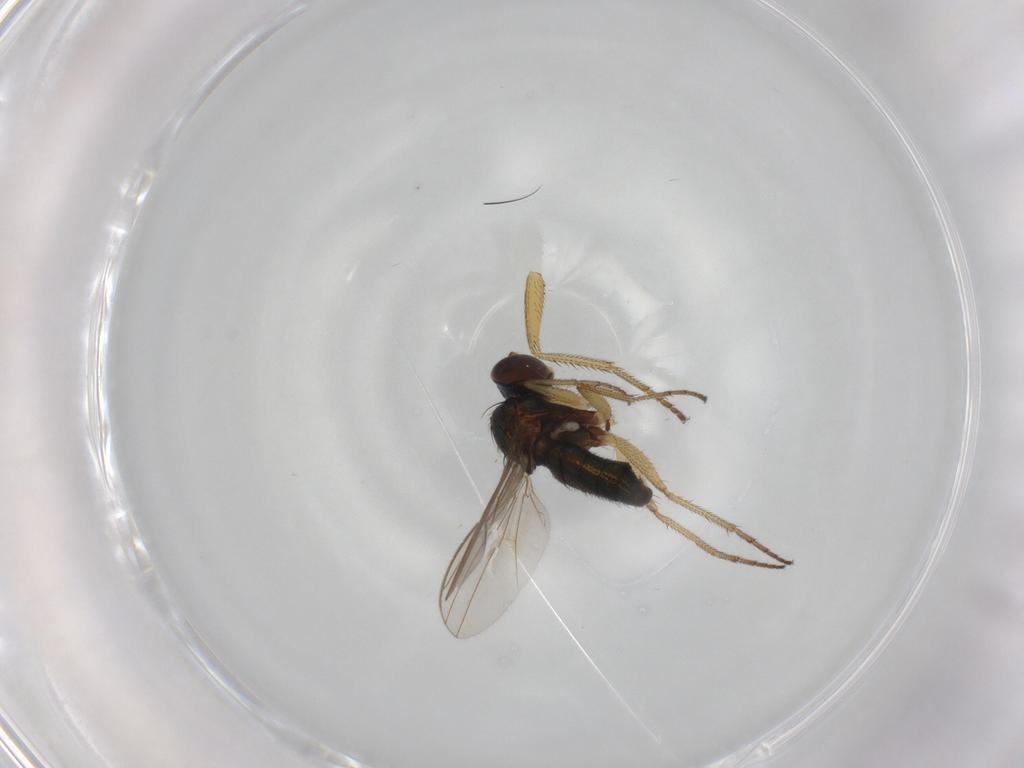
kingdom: Animalia
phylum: Arthropoda
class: Insecta
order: Diptera
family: Dolichopodidae
